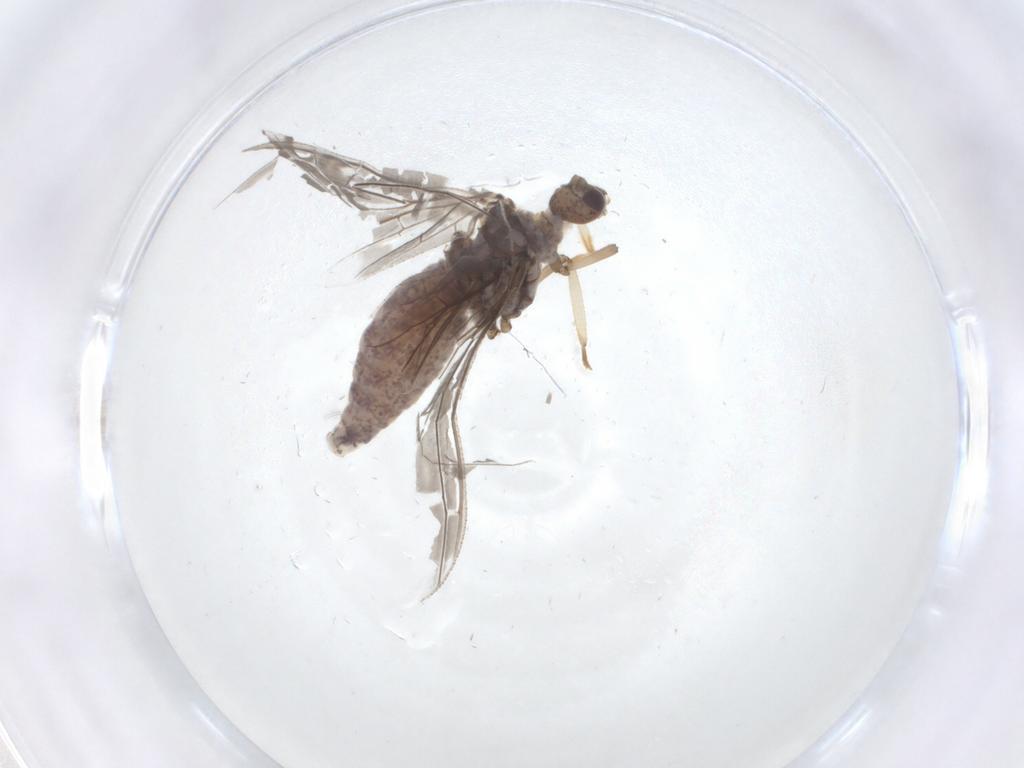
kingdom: Animalia
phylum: Arthropoda
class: Insecta
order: Neuroptera
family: Coniopterygidae
